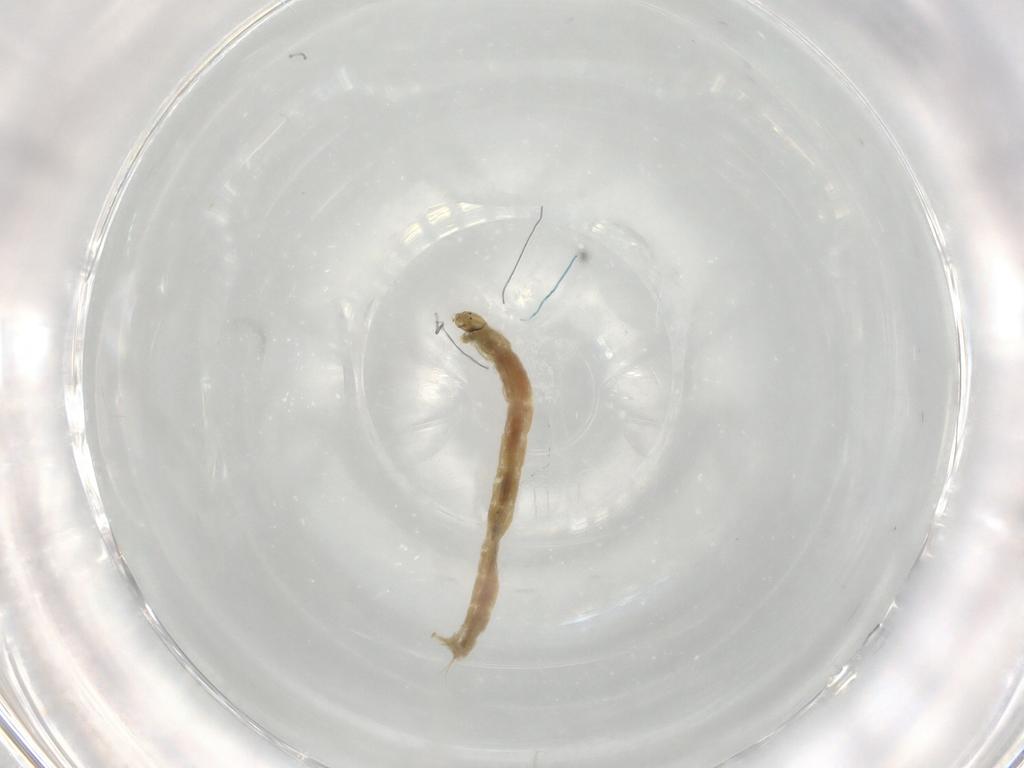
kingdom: Animalia
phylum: Arthropoda
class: Insecta
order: Diptera
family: Chironomidae
